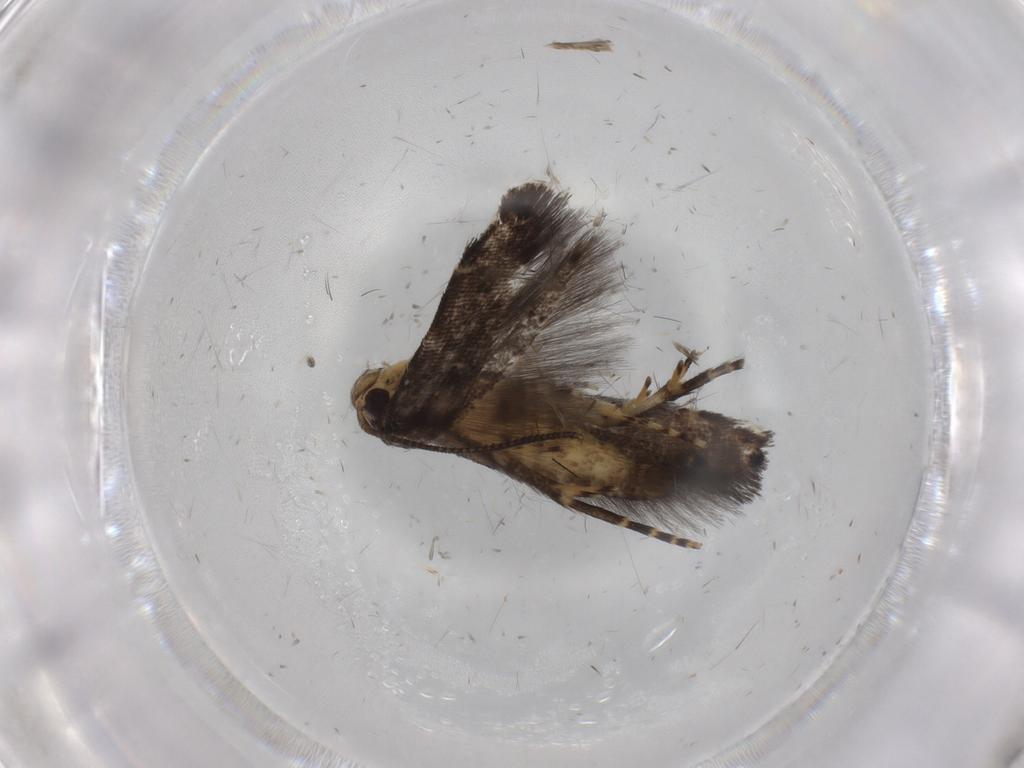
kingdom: Animalia
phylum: Arthropoda
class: Insecta
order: Lepidoptera
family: Cosmopterigidae
